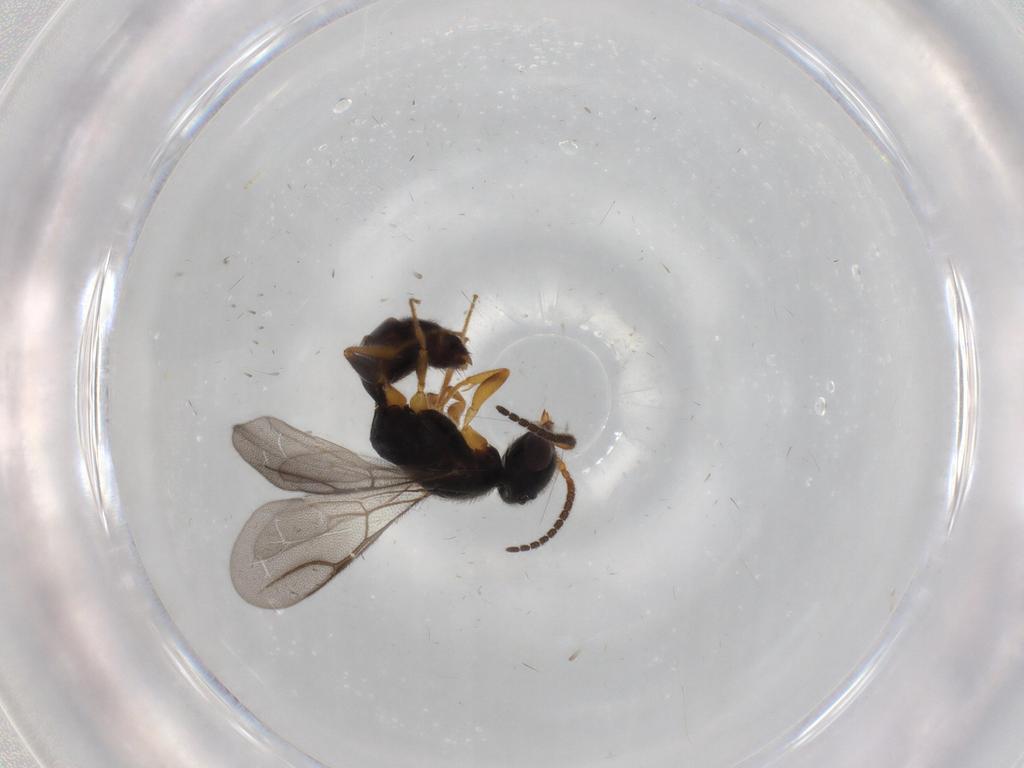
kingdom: Animalia
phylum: Arthropoda
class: Insecta
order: Hymenoptera
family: Bethylidae
